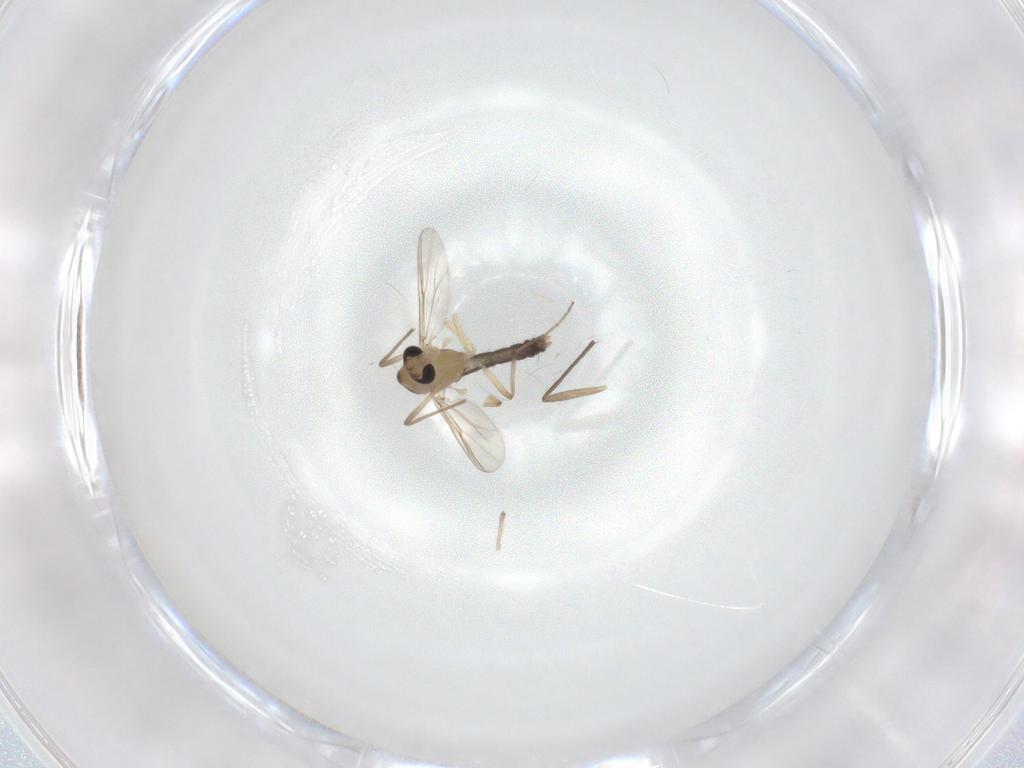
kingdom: Animalia
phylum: Arthropoda
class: Insecta
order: Diptera
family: Chironomidae
